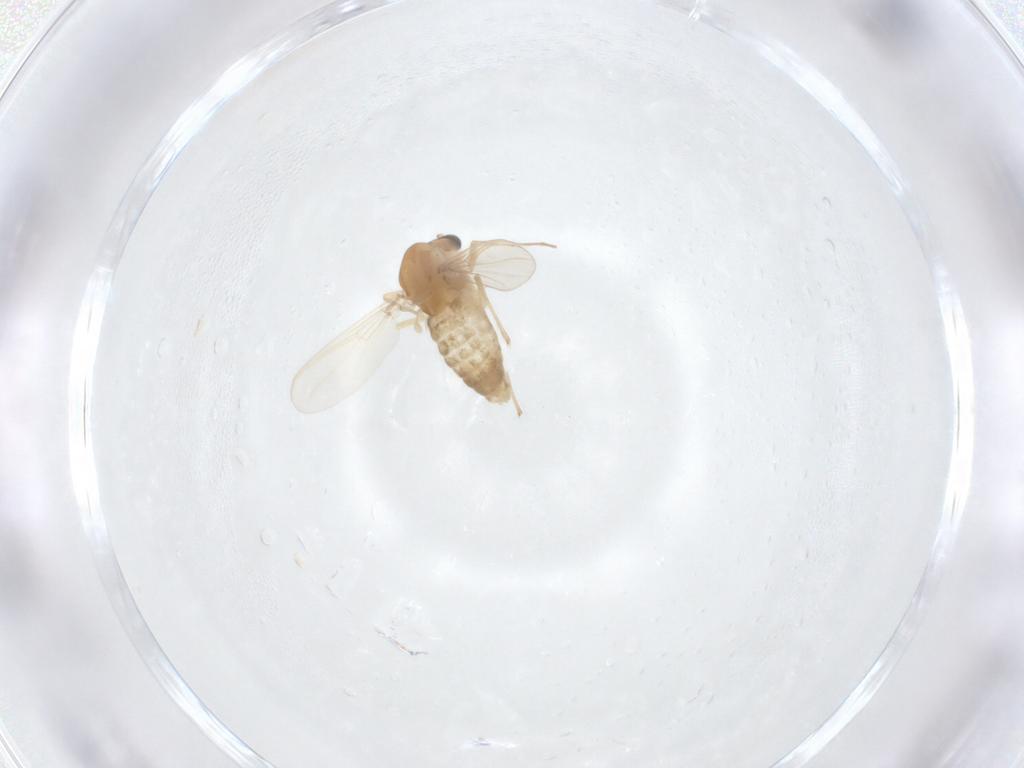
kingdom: Animalia
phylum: Arthropoda
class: Insecta
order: Diptera
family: Chironomidae
